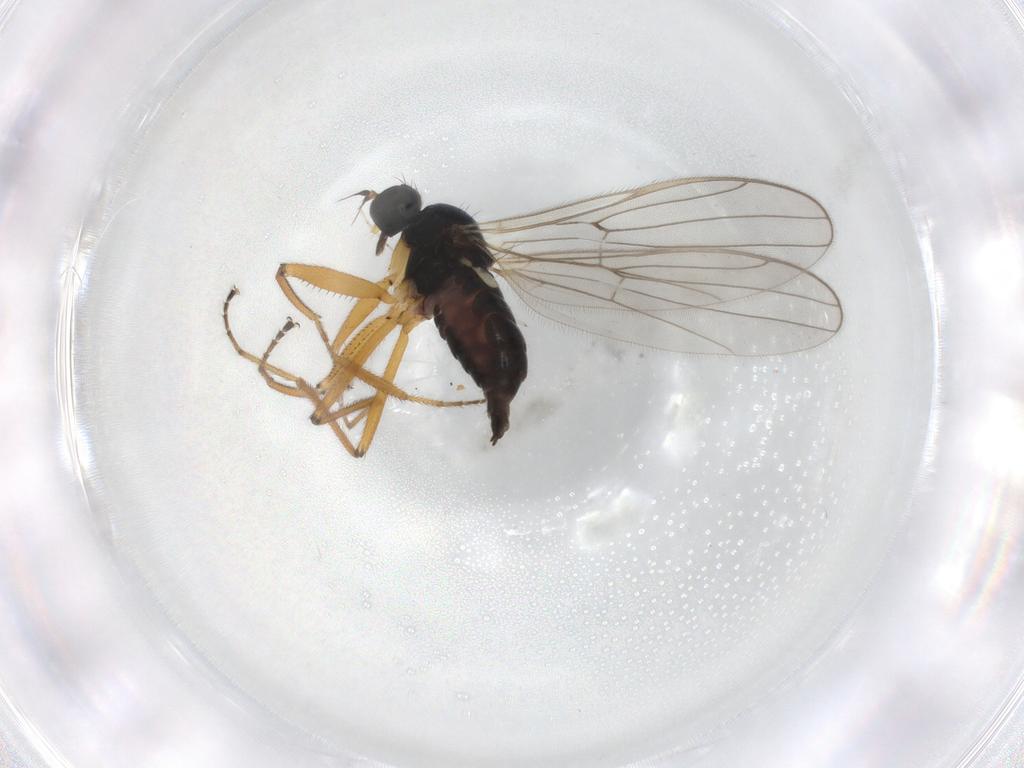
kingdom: Animalia
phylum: Arthropoda
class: Insecta
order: Diptera
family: Hybotidae
